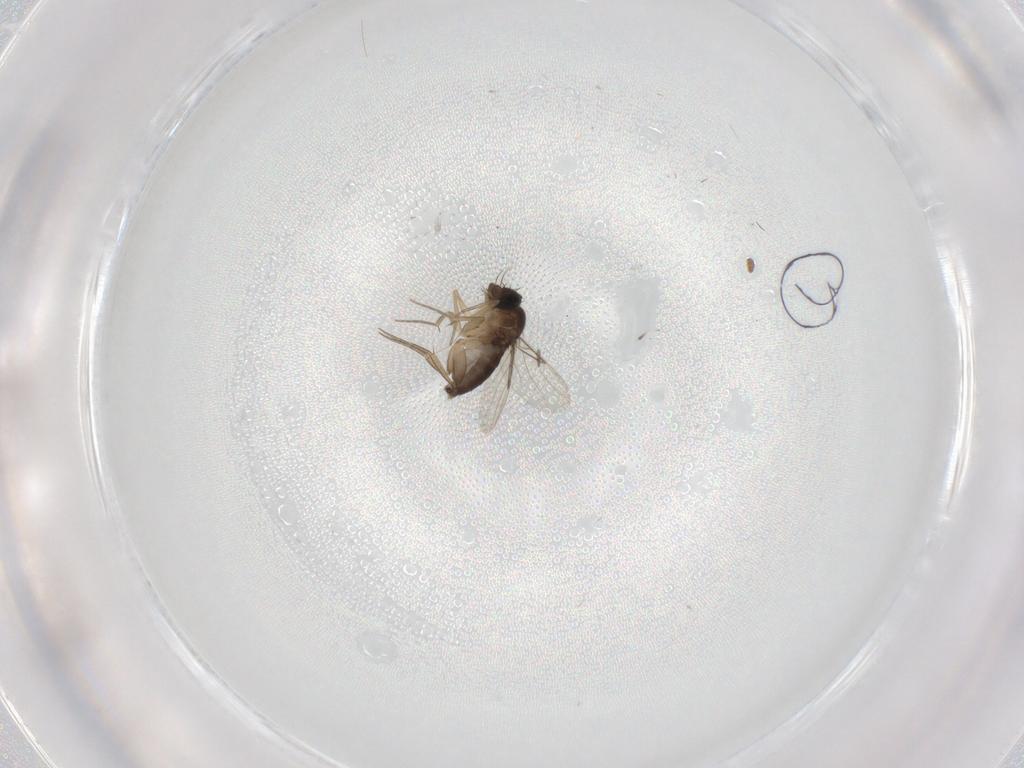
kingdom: Animalia
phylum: Arthropoda
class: Insecta
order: Diptera
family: Phoridae
